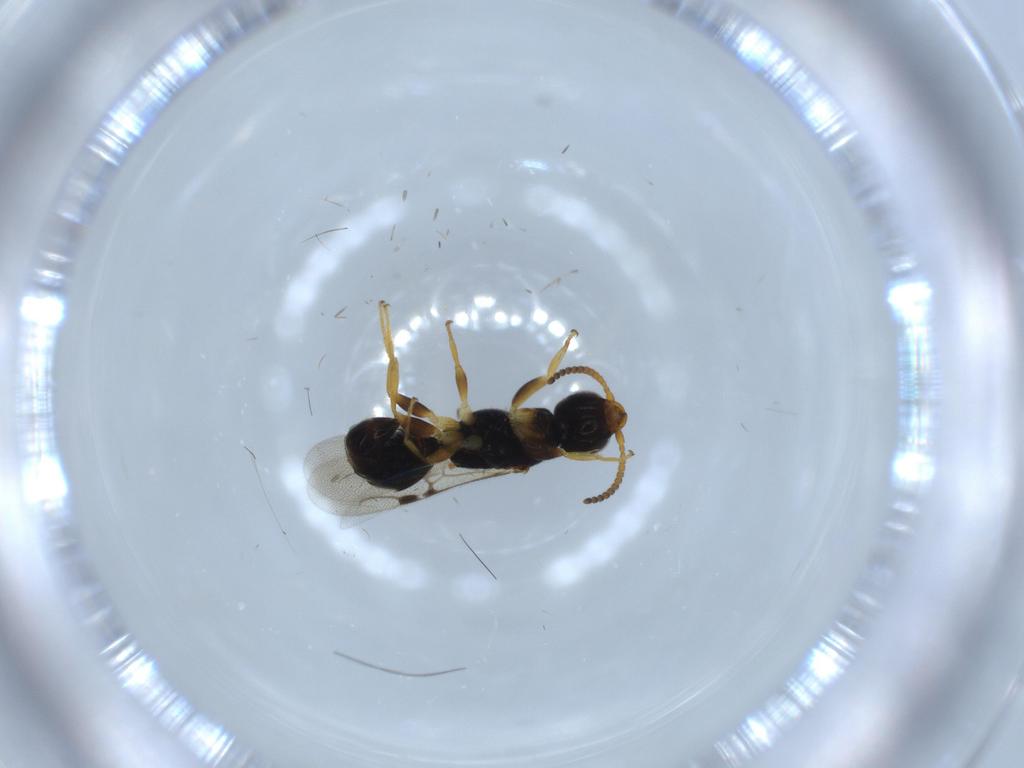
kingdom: Animalia
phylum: Arthropoda
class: Insecta
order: Hymenoptera
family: Bethylidae
